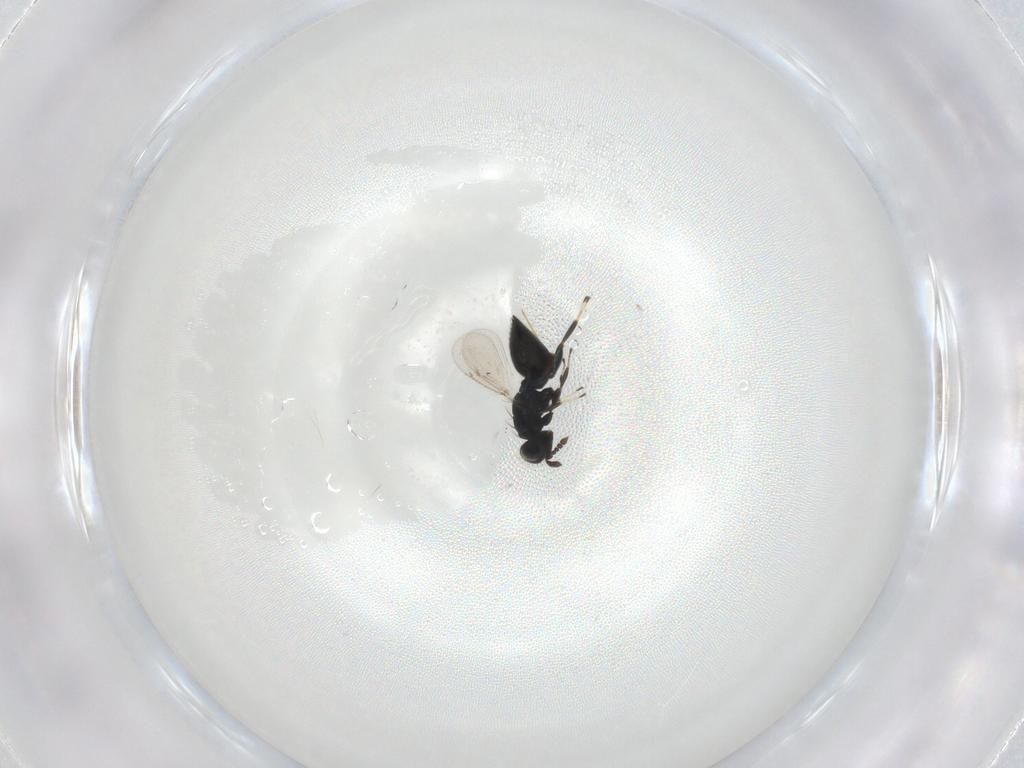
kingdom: Animalia
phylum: Arthropoda
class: Insecta
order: Hymenoptera
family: Eulophidae
